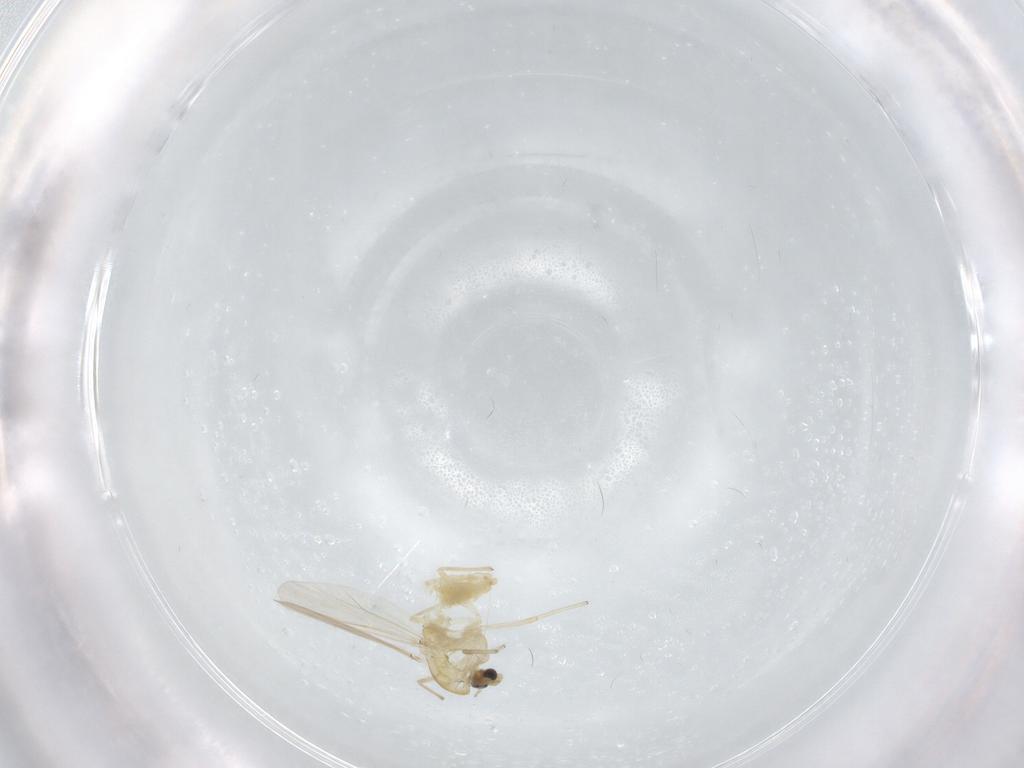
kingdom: Animalia
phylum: Arthropoda
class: Insecta
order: Diptera
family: Chironomidae
